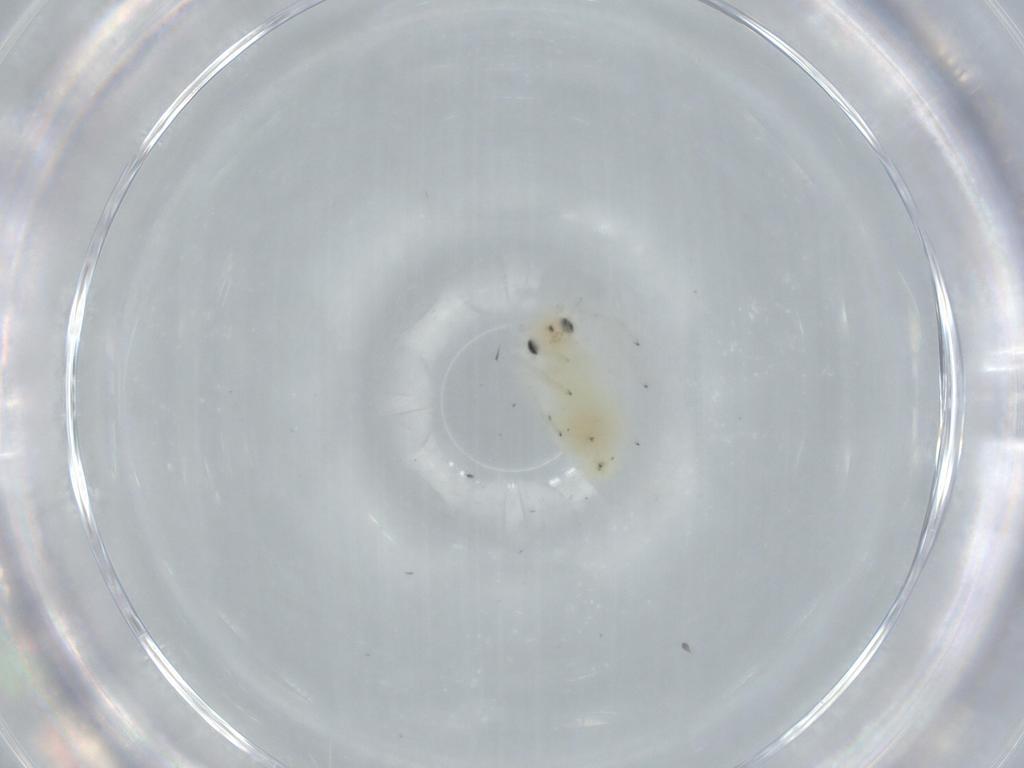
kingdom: Animalia
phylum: Arthropoda
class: Insecta
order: Psocodea
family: Caeciliusidae
